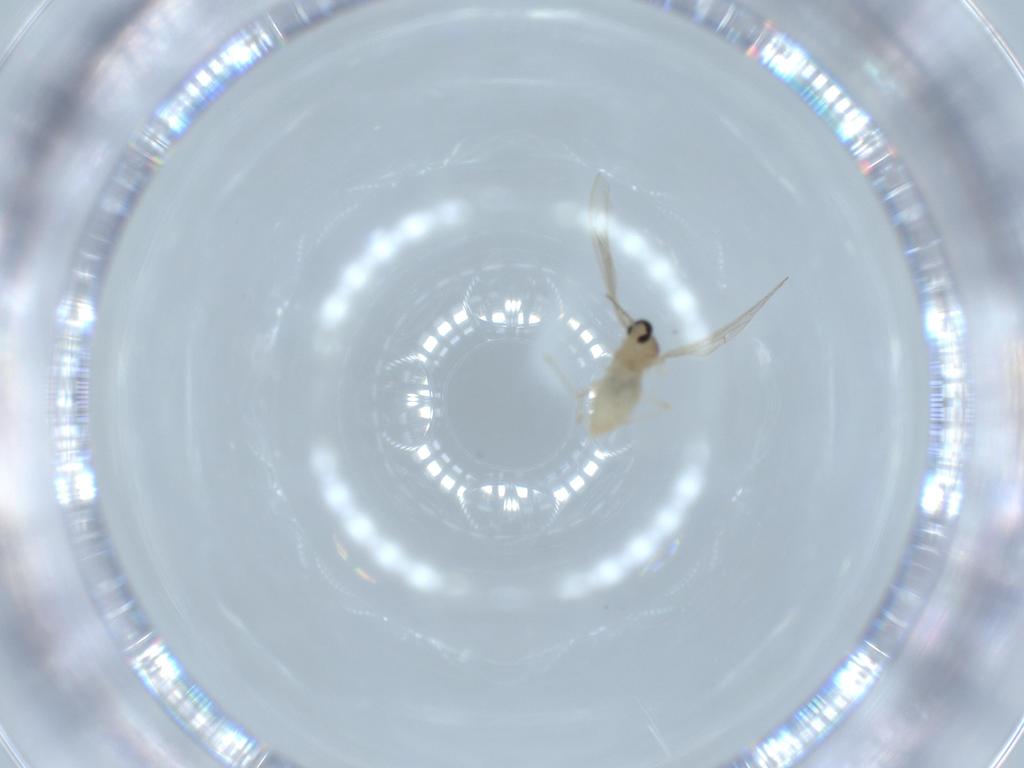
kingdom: Animalia
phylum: Arthropoda
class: Insecta
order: Diptera
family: Cecidomyiidae
